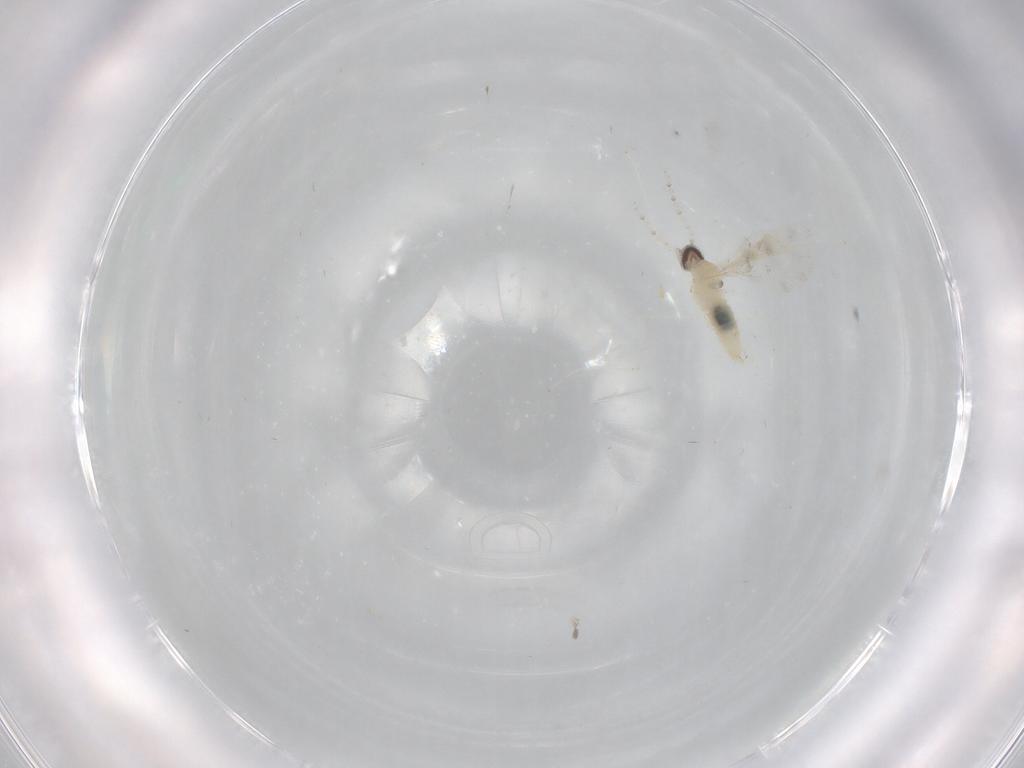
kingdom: Animalia
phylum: Arthropoda
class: Insecta
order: Diptera
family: Cecidomyiidae
